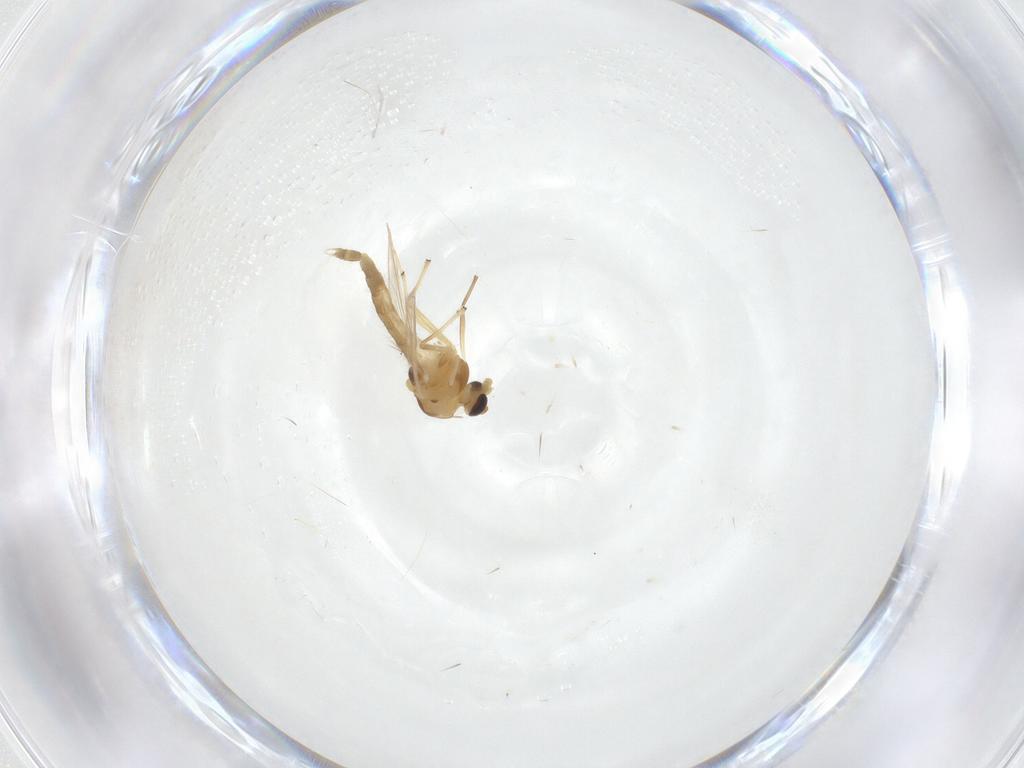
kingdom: Animalia
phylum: Arthropoda
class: Insecta
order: Diptera
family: Chironomidae
